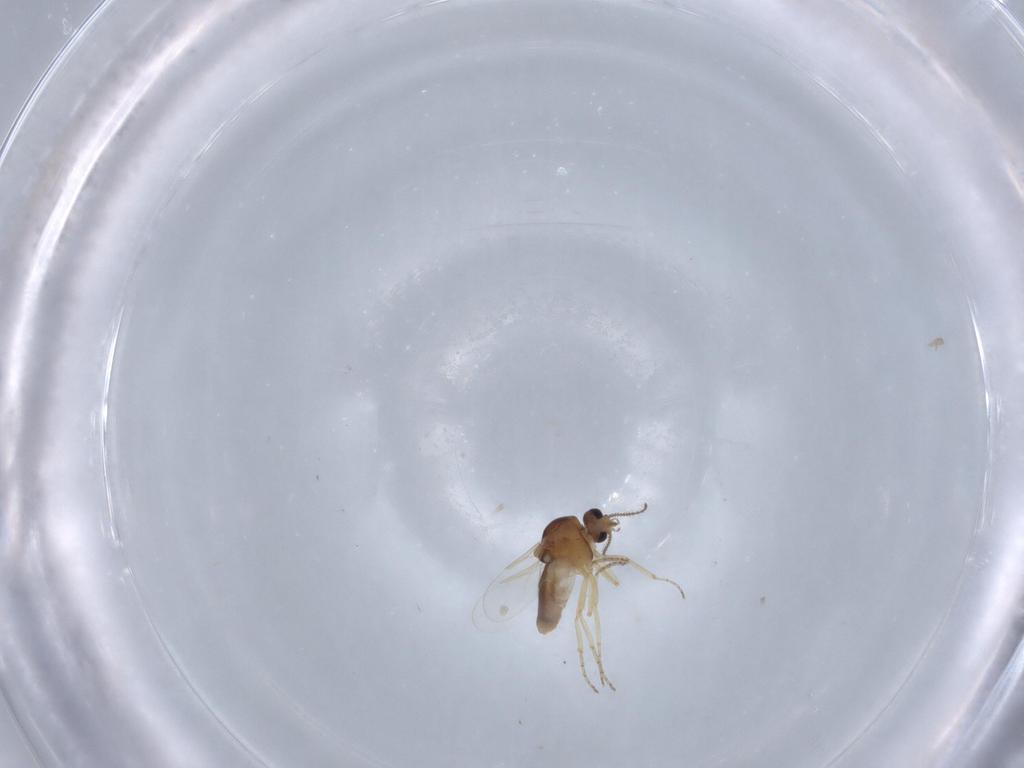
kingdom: Animalia
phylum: Arthropoda
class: Insecta
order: Diptera
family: Ceratopogonidae
